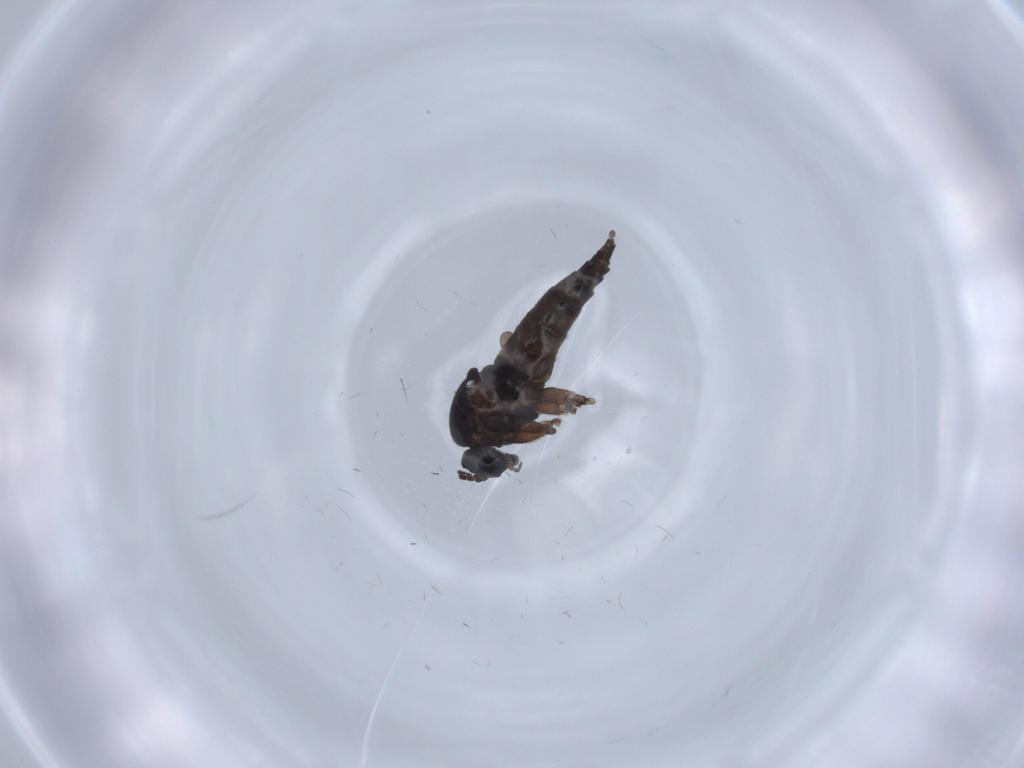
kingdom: Animalia
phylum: Arthropoda
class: Insecta
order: Diptera
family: Sciaridae
